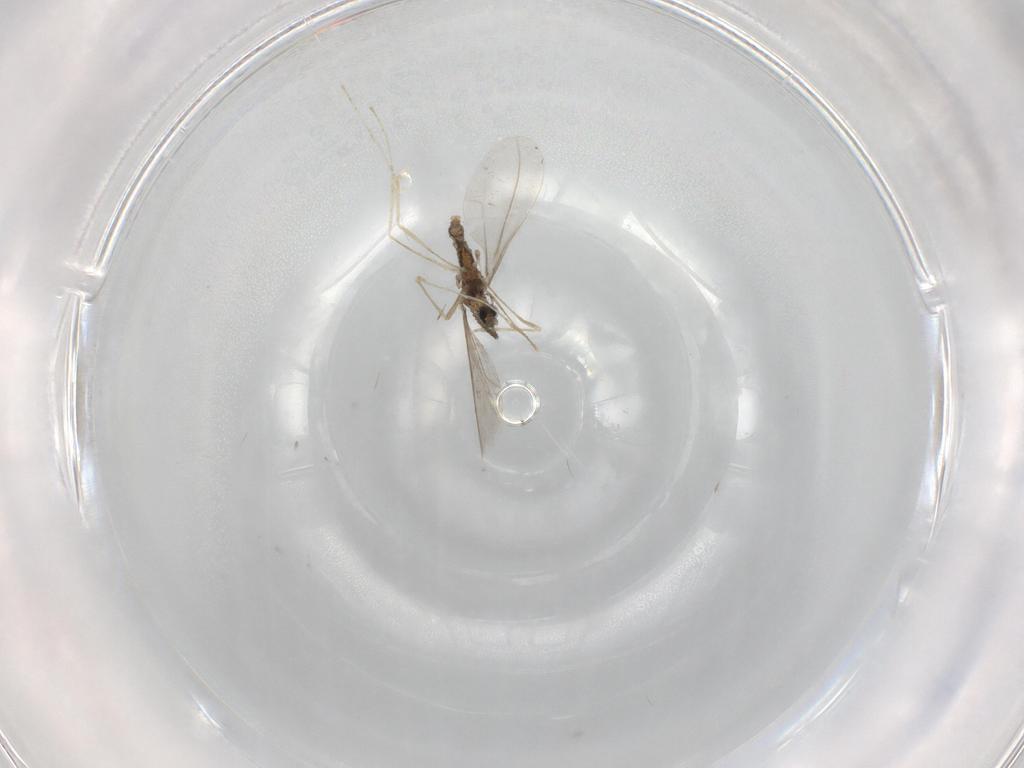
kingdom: Animalia
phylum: Arthropoda
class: Insecta
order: Diptera
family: Cecidomyiidae
